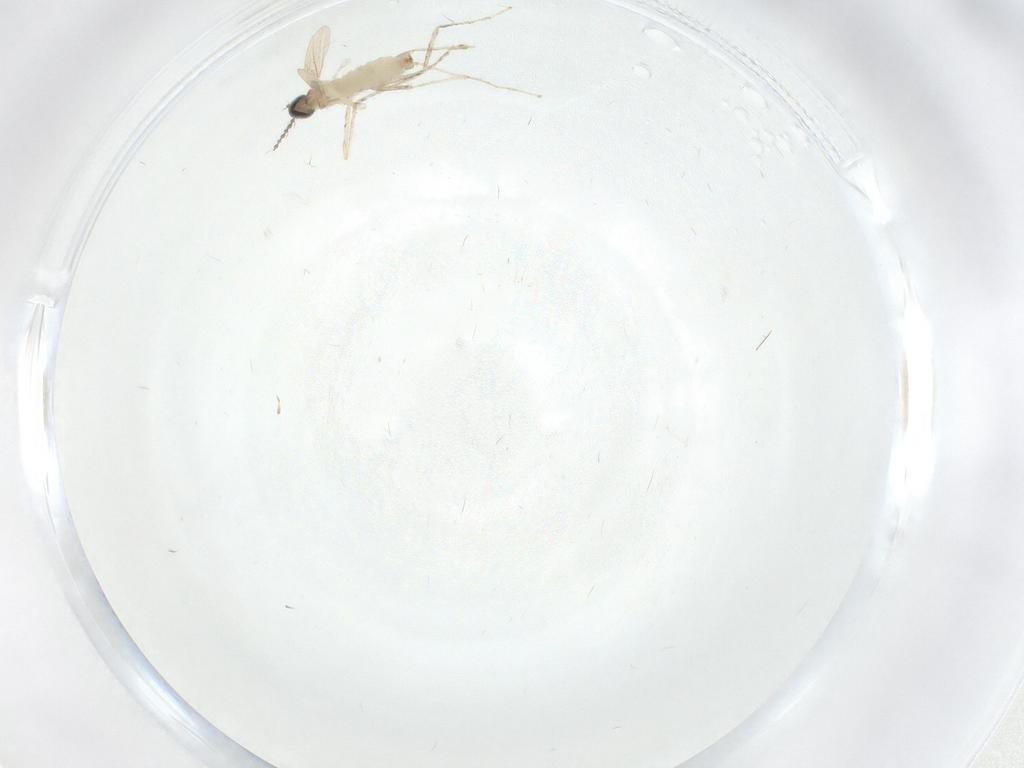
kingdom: Animalia
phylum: Arthropoda
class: Insecta
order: Diptera
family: Cecidomyiidae
